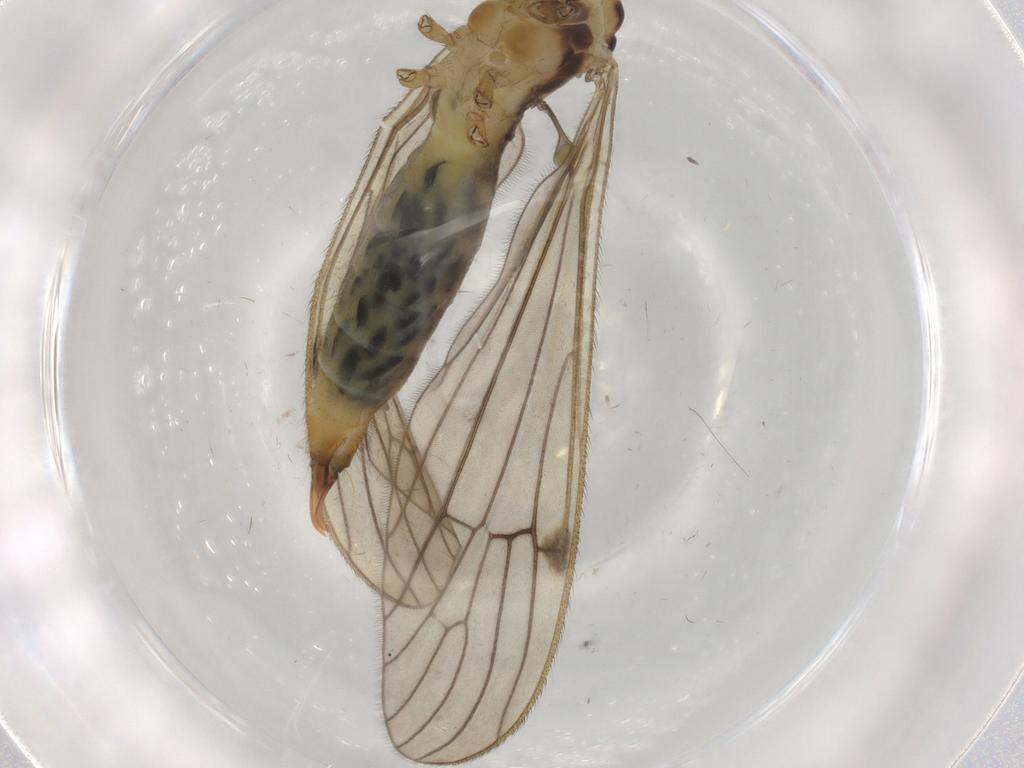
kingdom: Animalia
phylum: Arthropoda
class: Insecta
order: Diptera
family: Limoniidae
